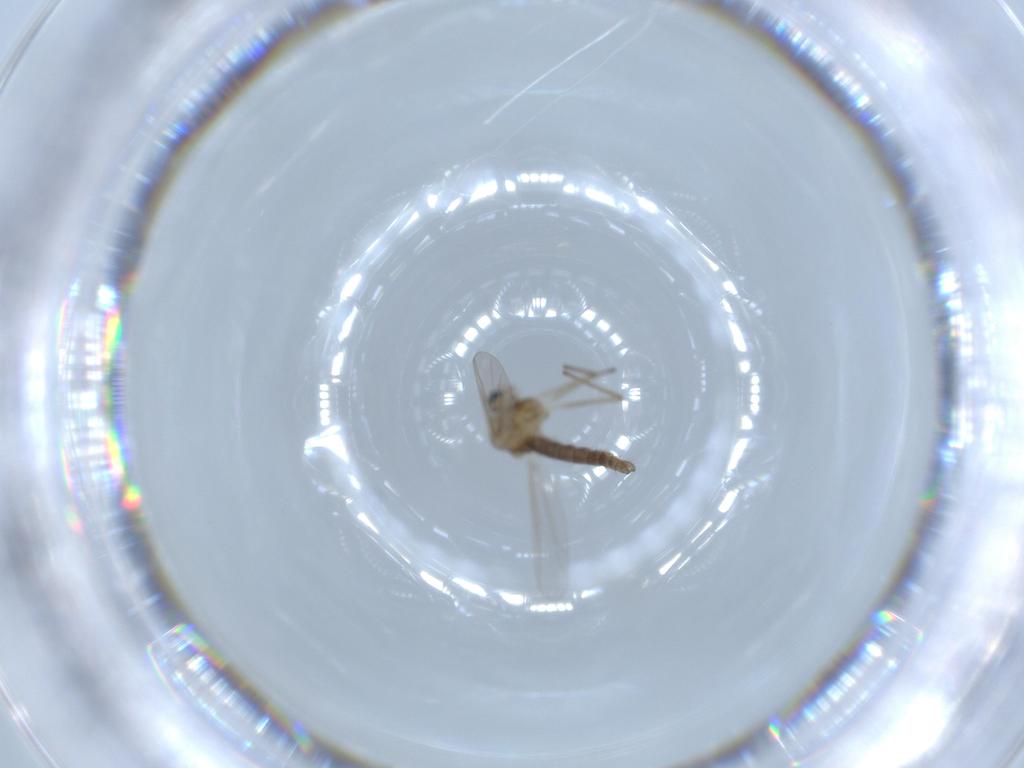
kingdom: Animalia
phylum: Arthropoda
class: Insecta
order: Diptera
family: Chironomidae
